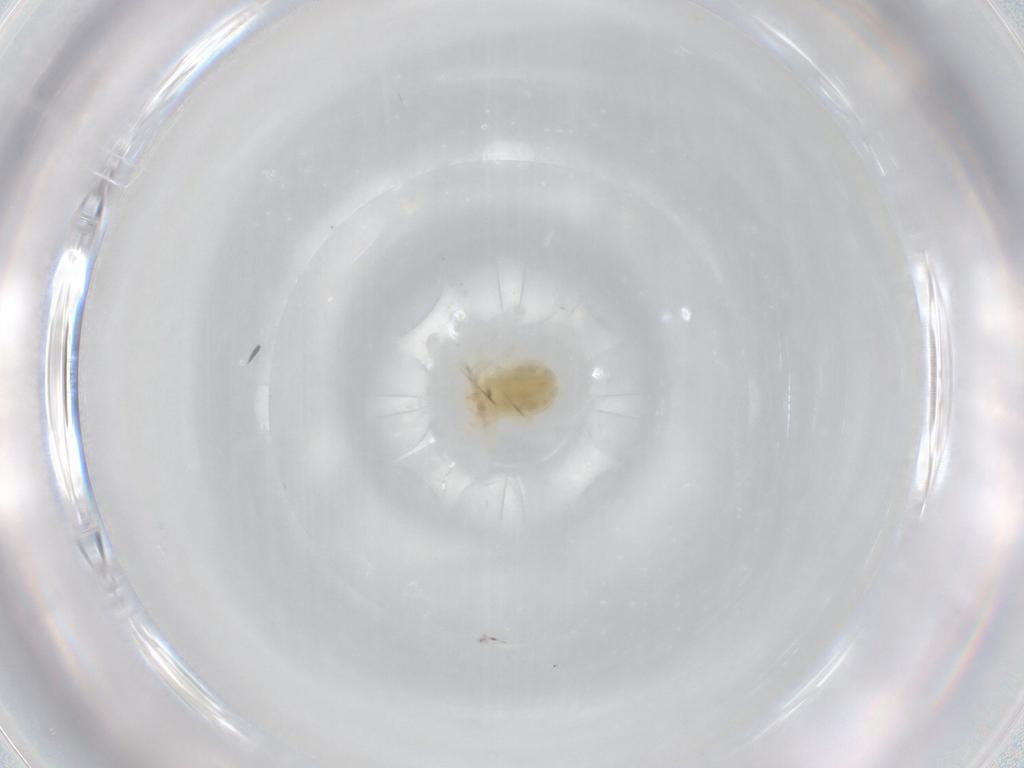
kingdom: Animalia
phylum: Arthropoda
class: Arachnida
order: Trombidiformes
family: Anystidae
